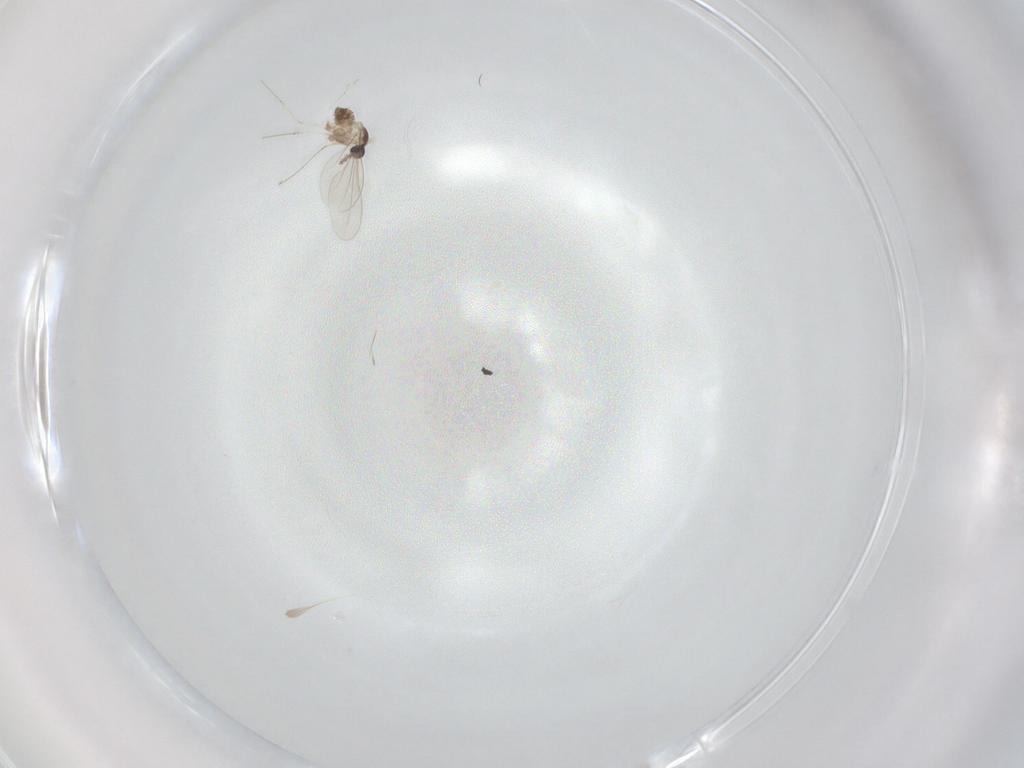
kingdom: Animalia
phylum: Arthropoda
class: Insecta
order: Diptera
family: Cecidomyiidae
